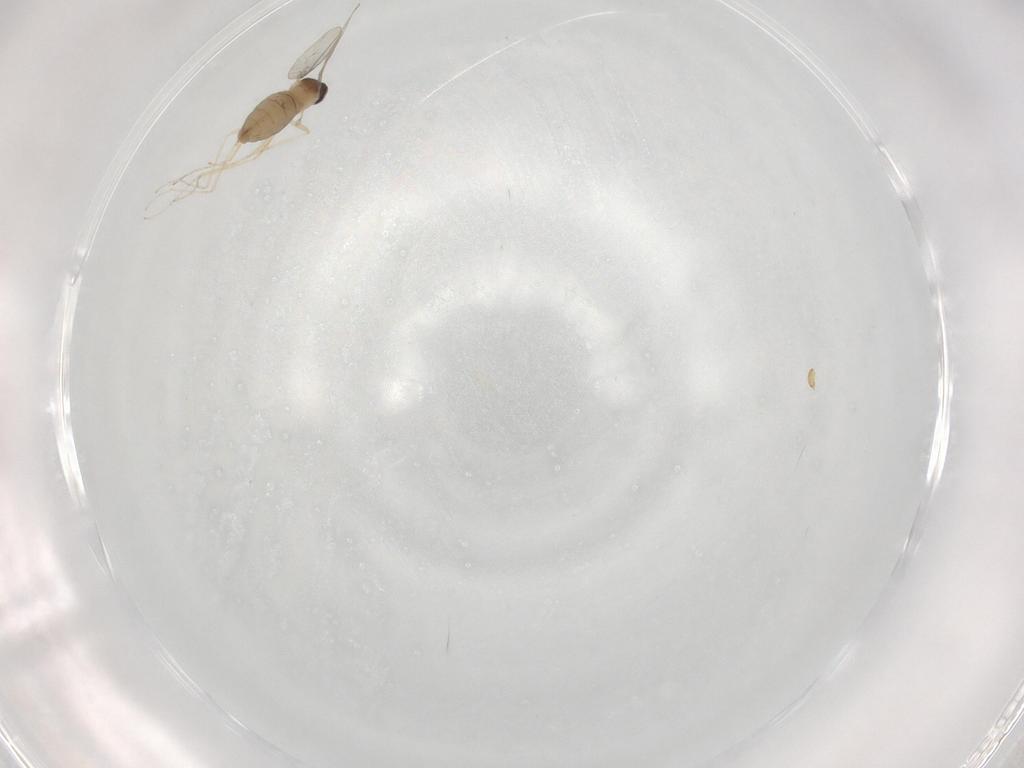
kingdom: Animalia
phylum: Arthropoda
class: Insecta
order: Diptera
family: Cecidomyiidae
